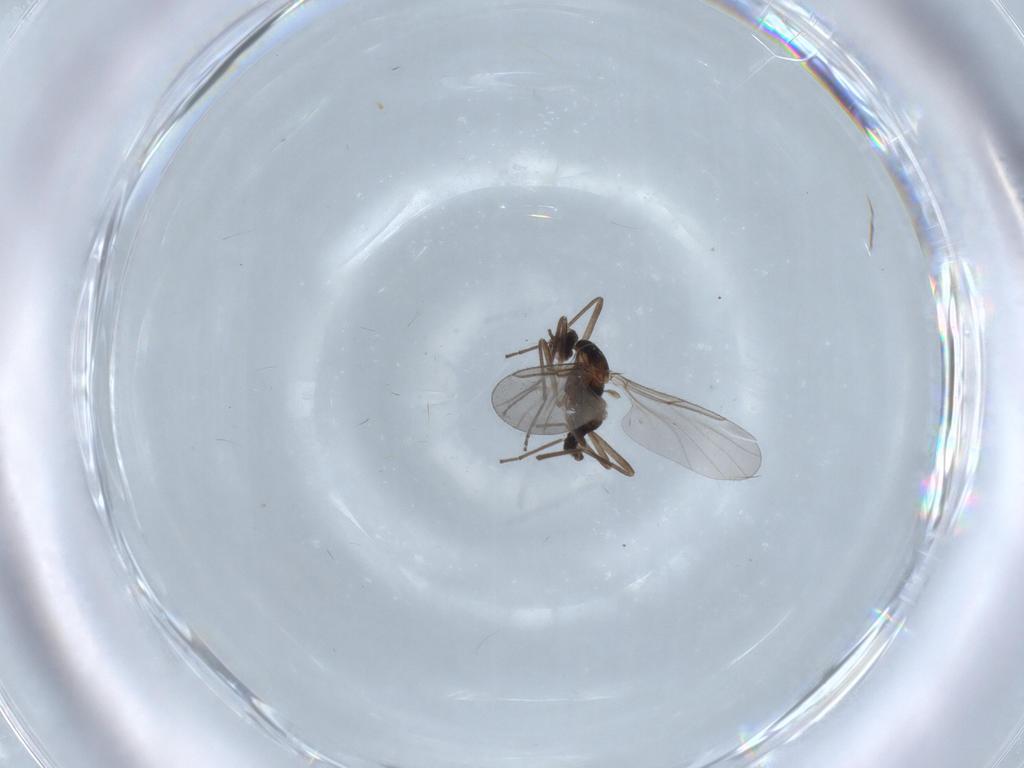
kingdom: Animalia
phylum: Arthropoda
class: Insecta
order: Diptera
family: Cecidomyiidae
